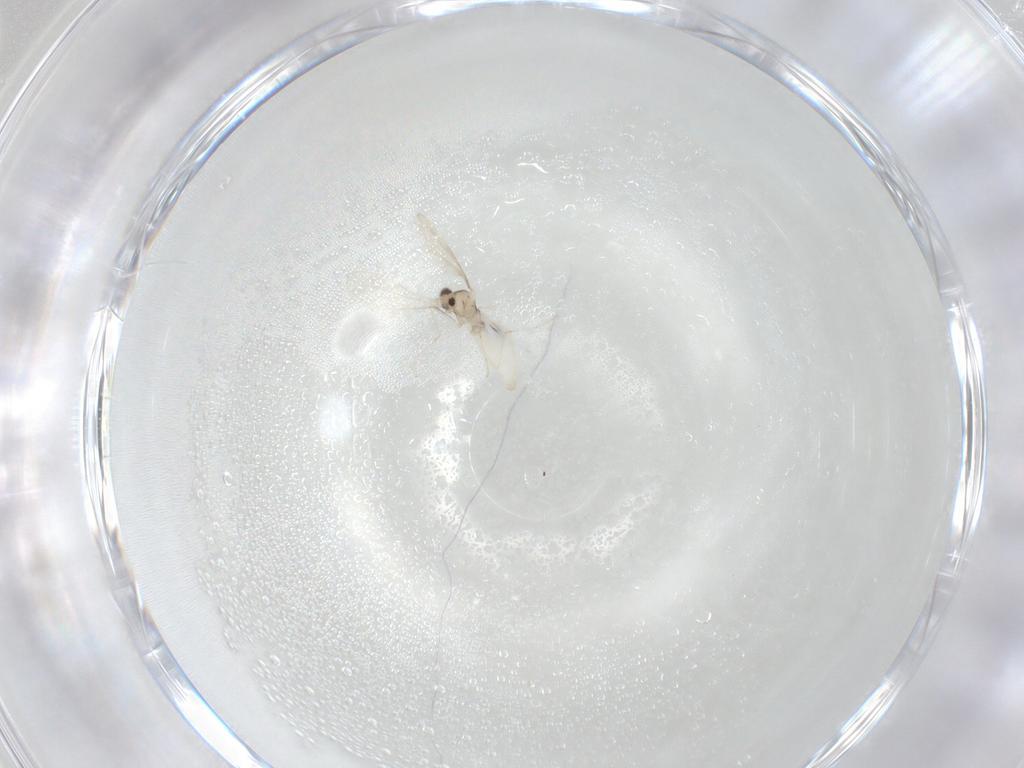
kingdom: Animalia
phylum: Arthropoda
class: Insecta
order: Diptera
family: Cecidomyiidae
